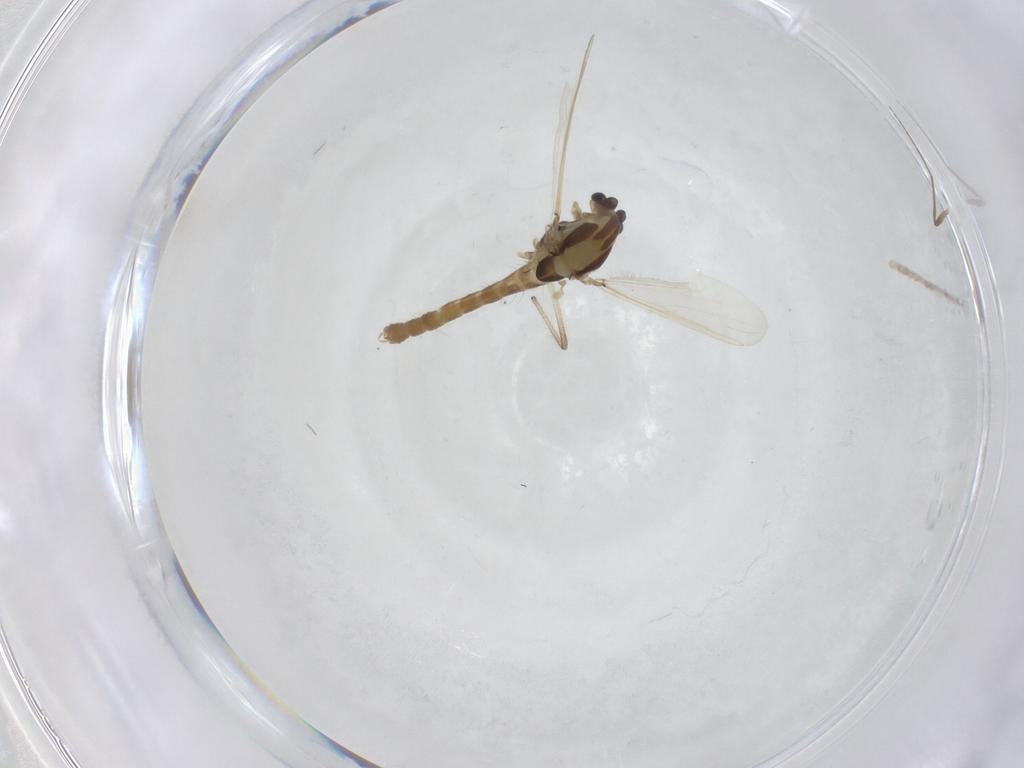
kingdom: Animalia
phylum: Arthropoda
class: Insecta
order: Diptera
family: Chironomidae
